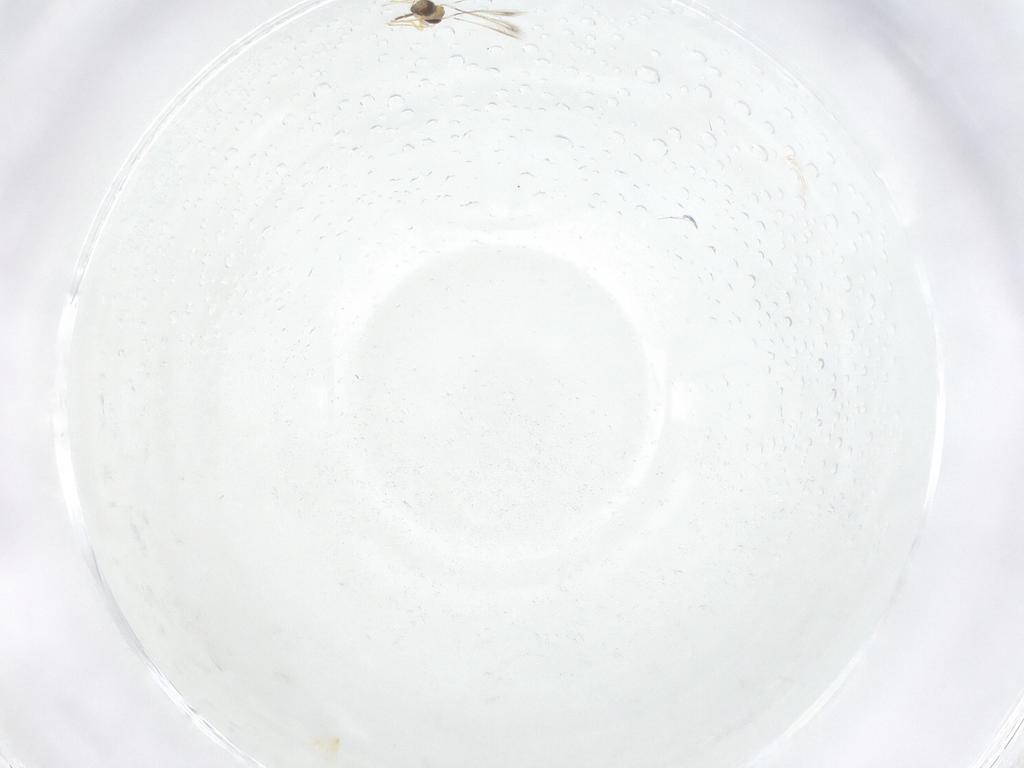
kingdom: Animalia
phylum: Arthropoda
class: Insecta
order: Diptera
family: Chironomidae
